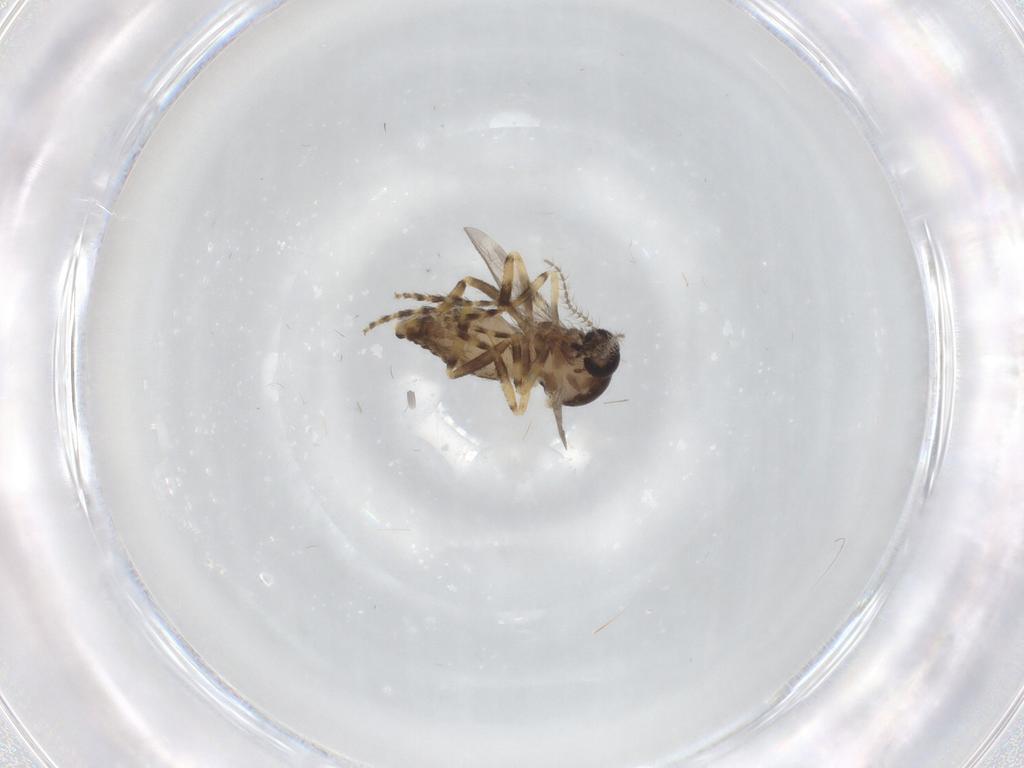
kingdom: Animalia
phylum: Arthropoda
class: Insecta
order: Diptera
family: Ceratopogonidae
